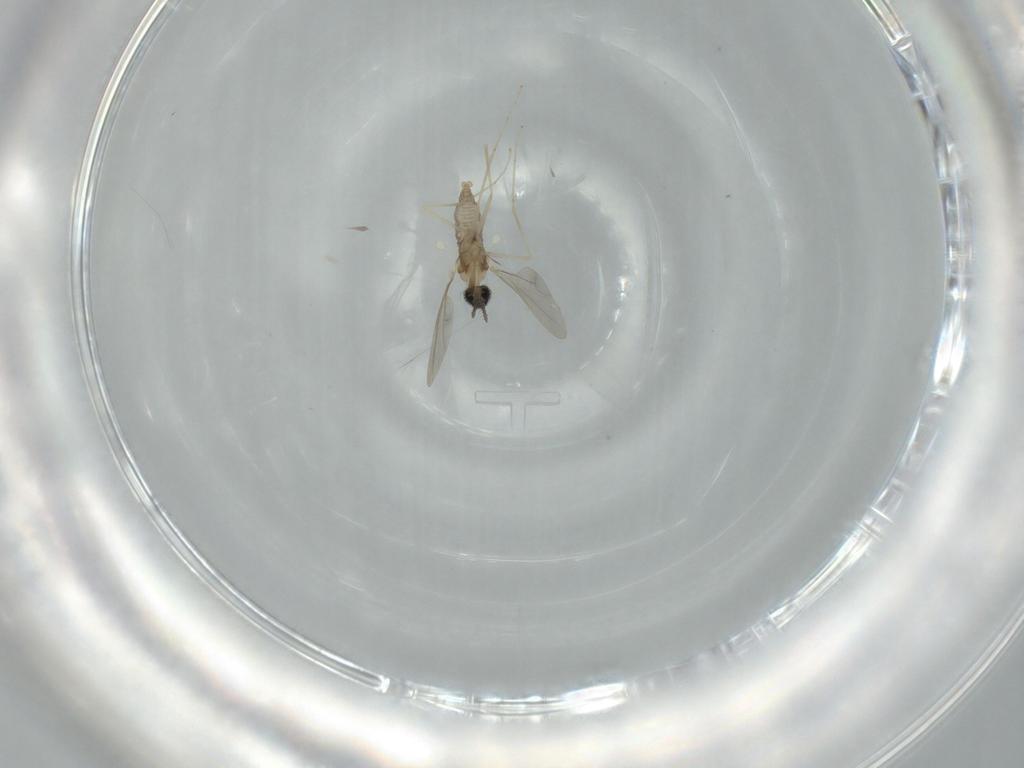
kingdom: Animalia
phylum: Arthropoda
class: Insecta
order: Diptera
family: Cecidomyiidae
